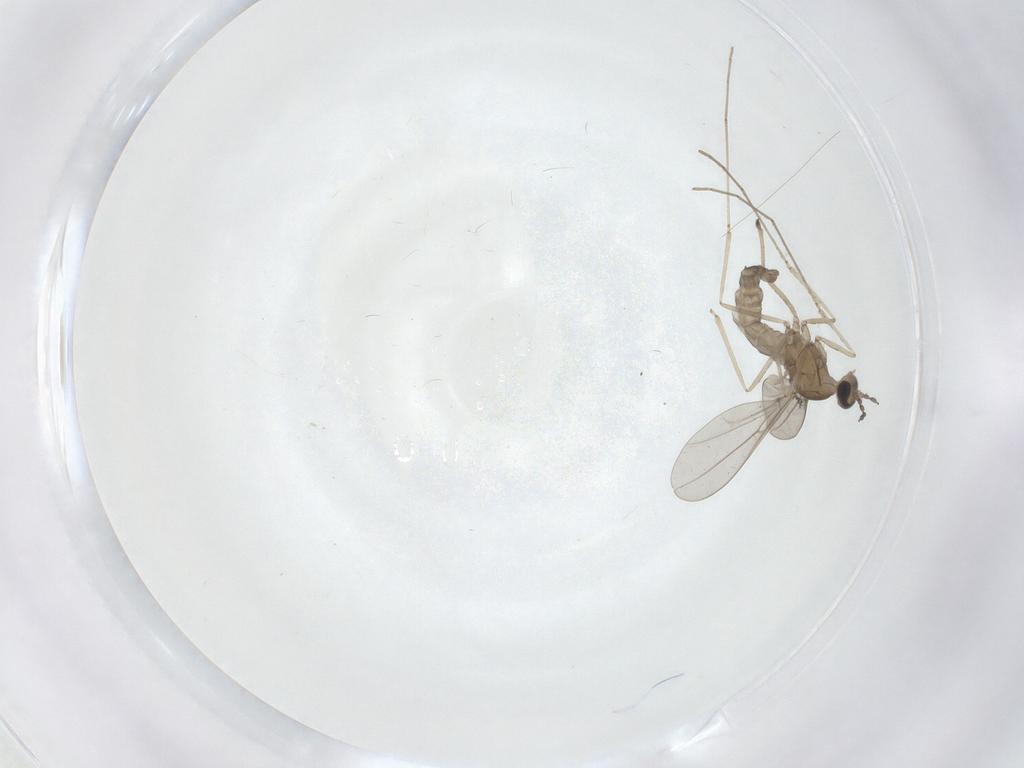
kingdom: Animalia
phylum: Arthropoda
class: Insecta
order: Diptera
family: Cecidomyiidae
